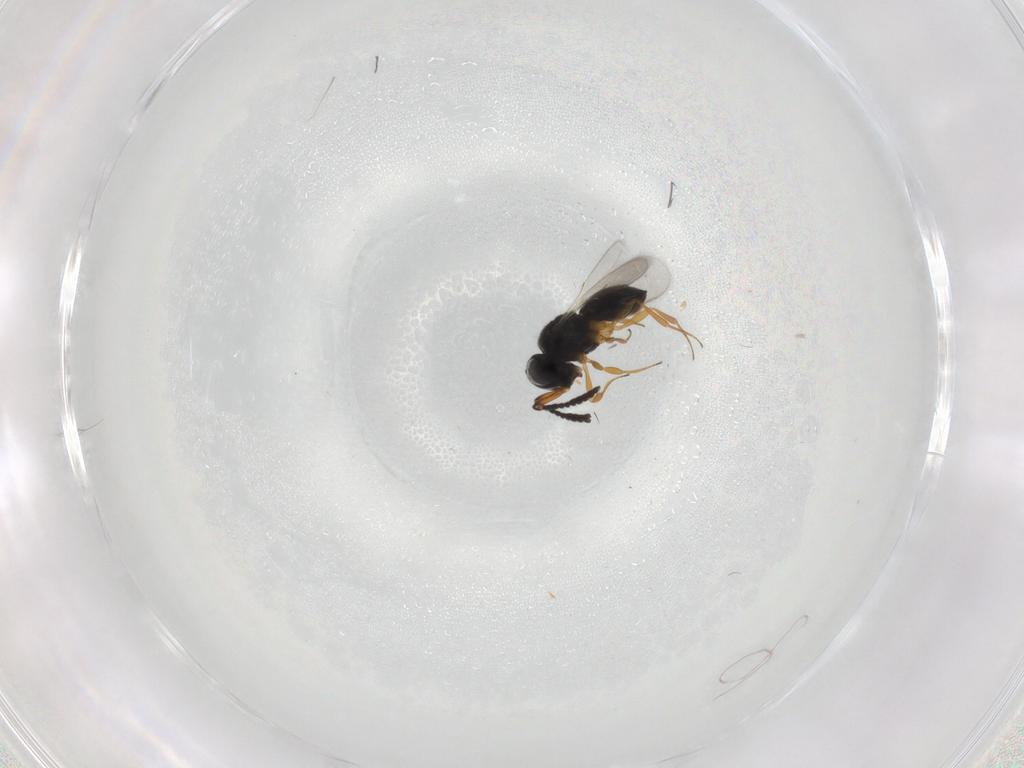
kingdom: Animalia
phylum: Arthropoda
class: Insecta
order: Hymenoptera
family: Scelionidae
